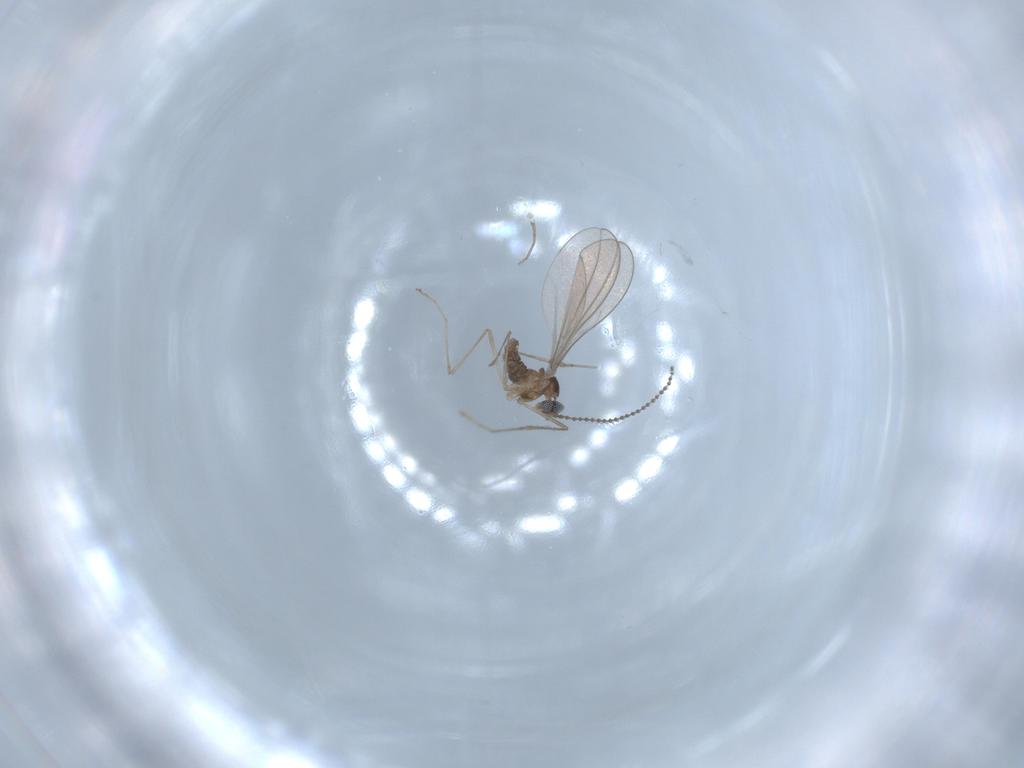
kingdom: Animalia
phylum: Arthropoda
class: Insecta
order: Diptera
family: Cecidomyiidae
